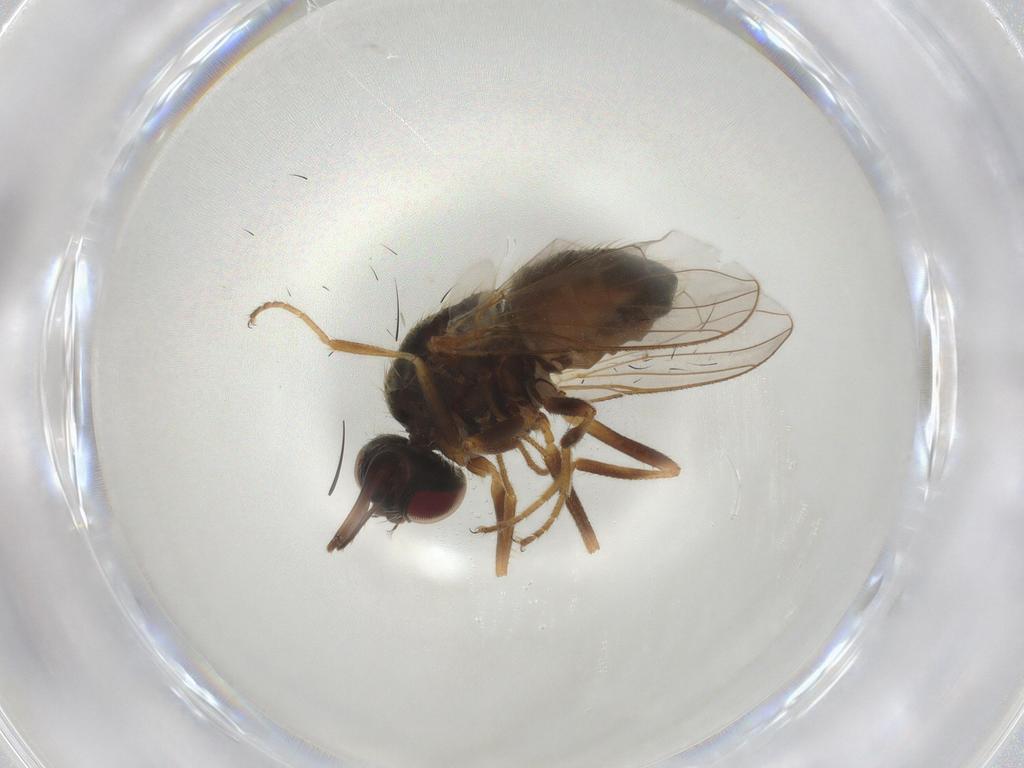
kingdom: Animalia
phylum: Arthropoda
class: Insecta
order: Diptera
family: Muscidae
